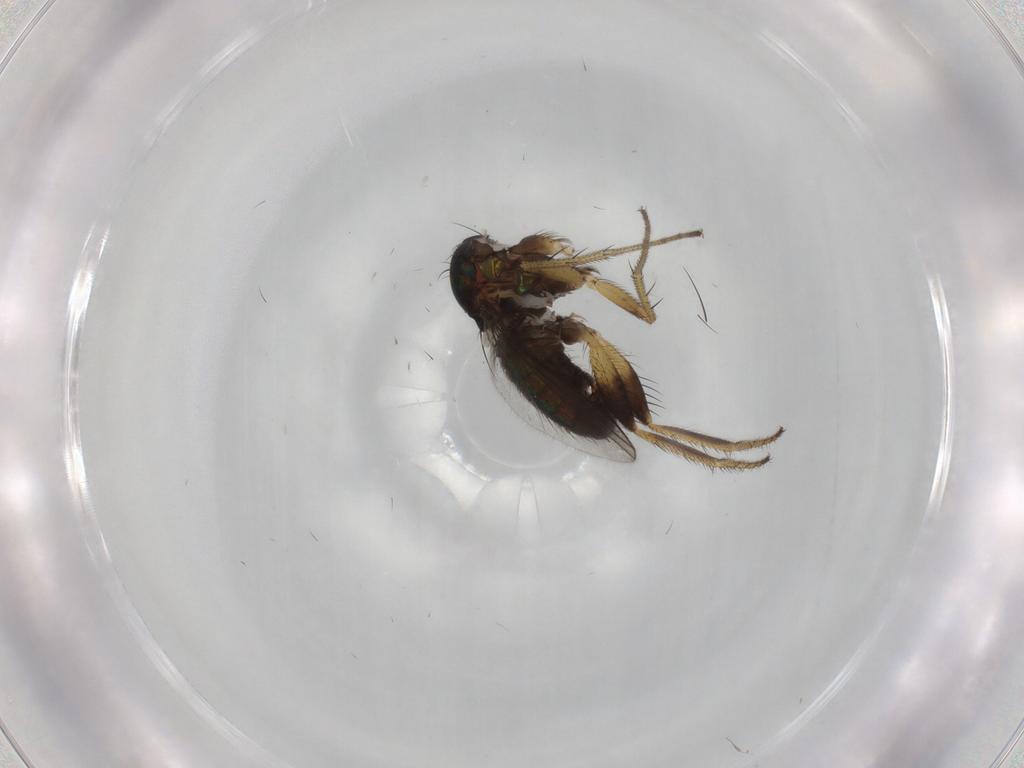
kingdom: Animalia
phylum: Arthropoda
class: Insecta
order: Diptera
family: Dolichopodidae
